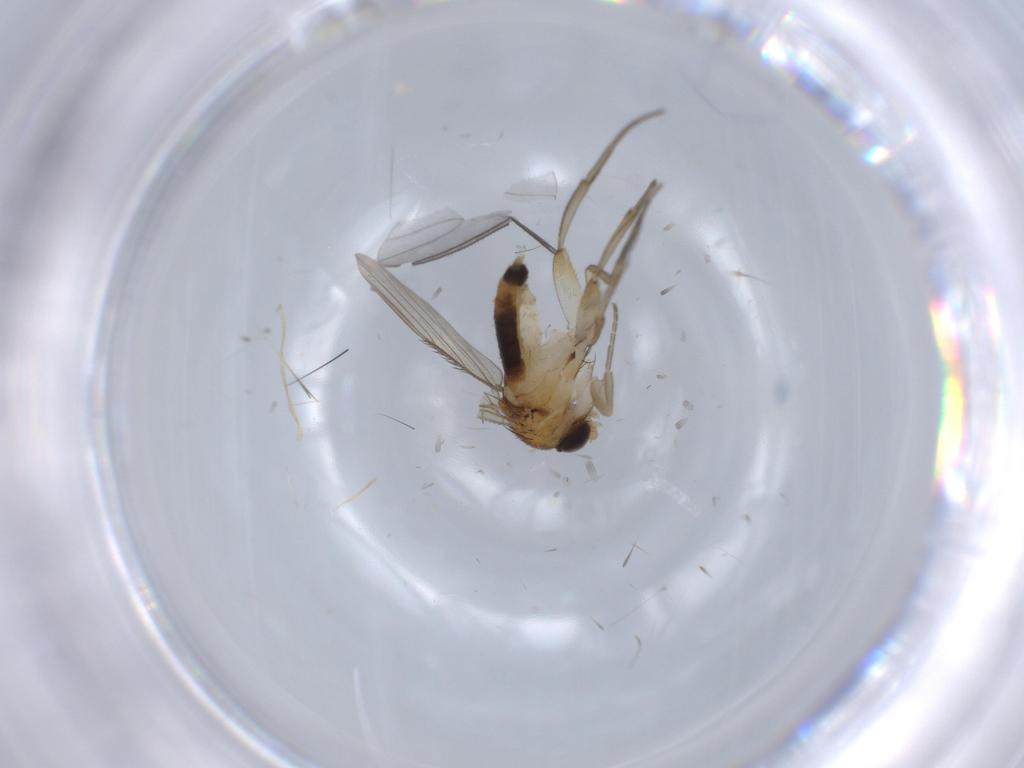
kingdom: Animalia
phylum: Arthropoda
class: Insecta
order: Diptera
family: Phoridae
